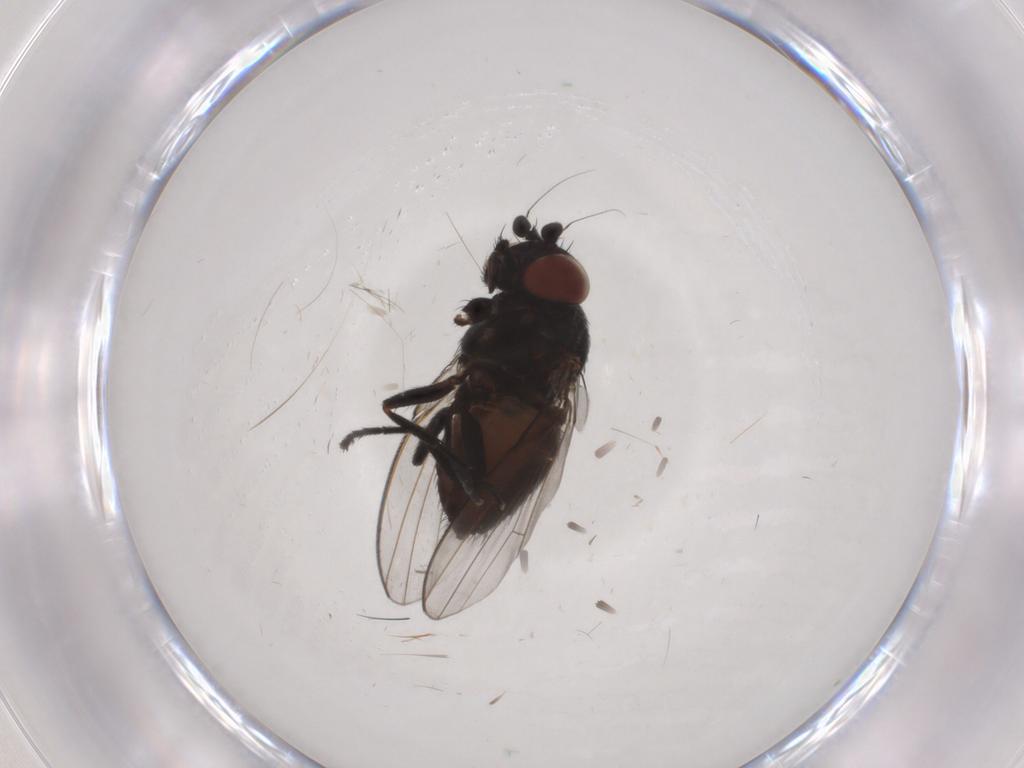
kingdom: Animalia
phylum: Arthropoda
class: Insecta
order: Diptera
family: Milichiidae
